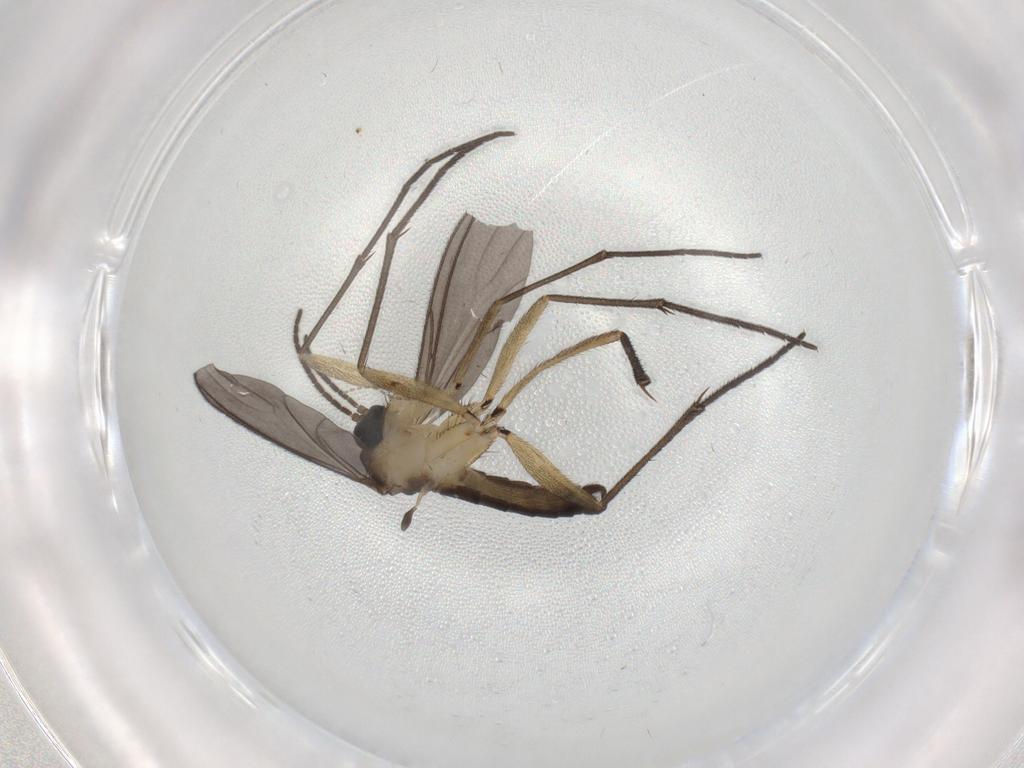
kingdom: Animalia
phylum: Arthropoda
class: Insecta
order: Diptera
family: Sciaridae
